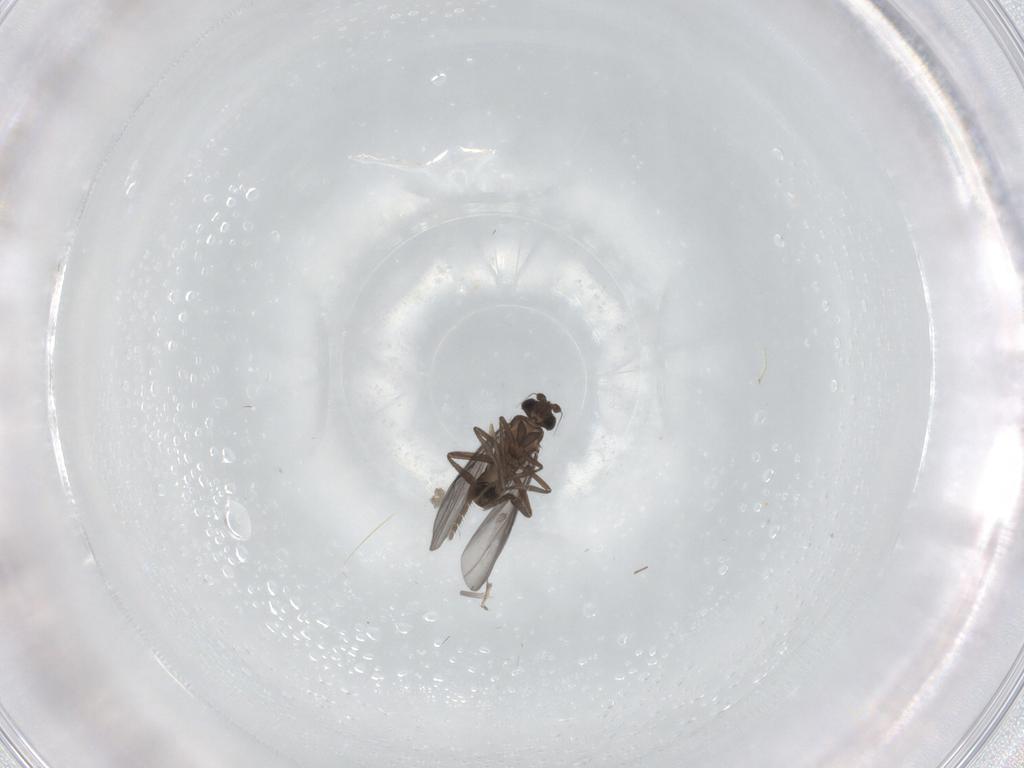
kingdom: Animalia
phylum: Arthropoda
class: Insecta
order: Diptera
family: Phoridae
